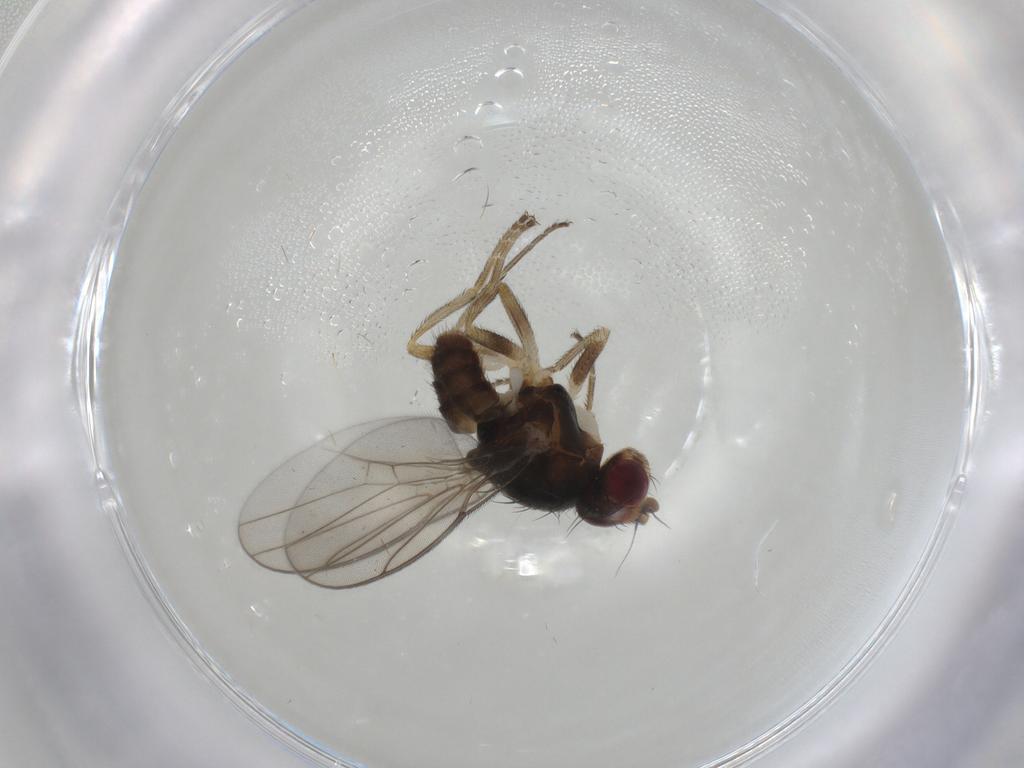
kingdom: Animalia
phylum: Arthropoda
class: Insecta
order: Diptera
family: Chloropidae
